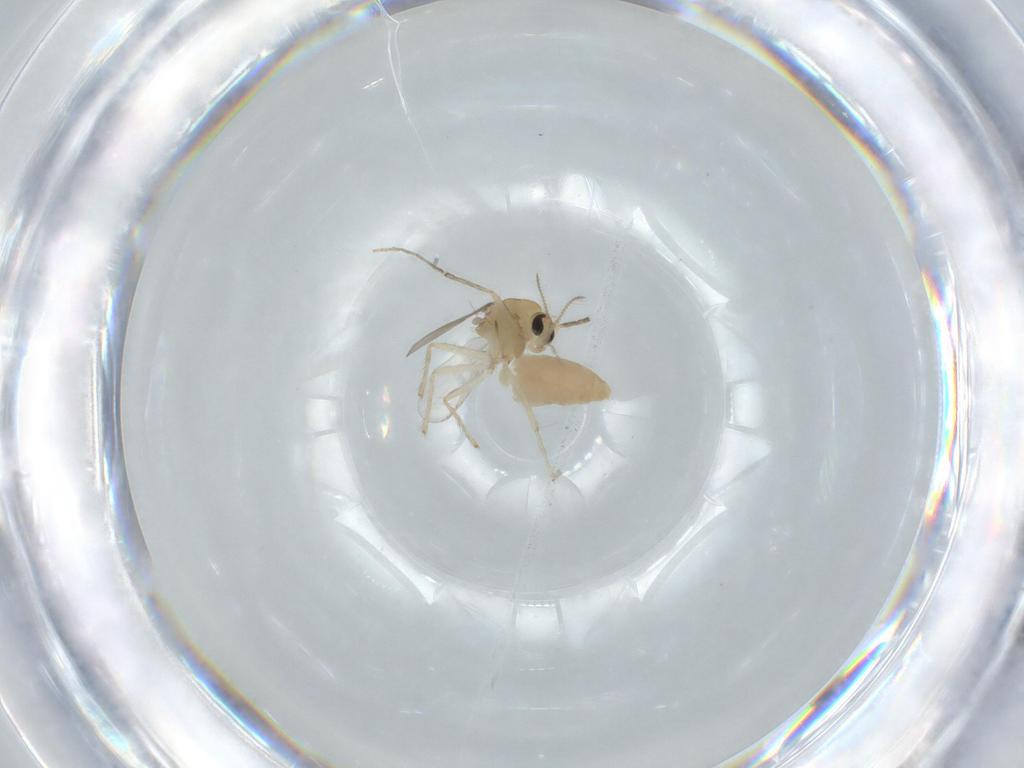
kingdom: Animalia
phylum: Arthropoda
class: Insecta
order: Diptera
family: Chironomidae
